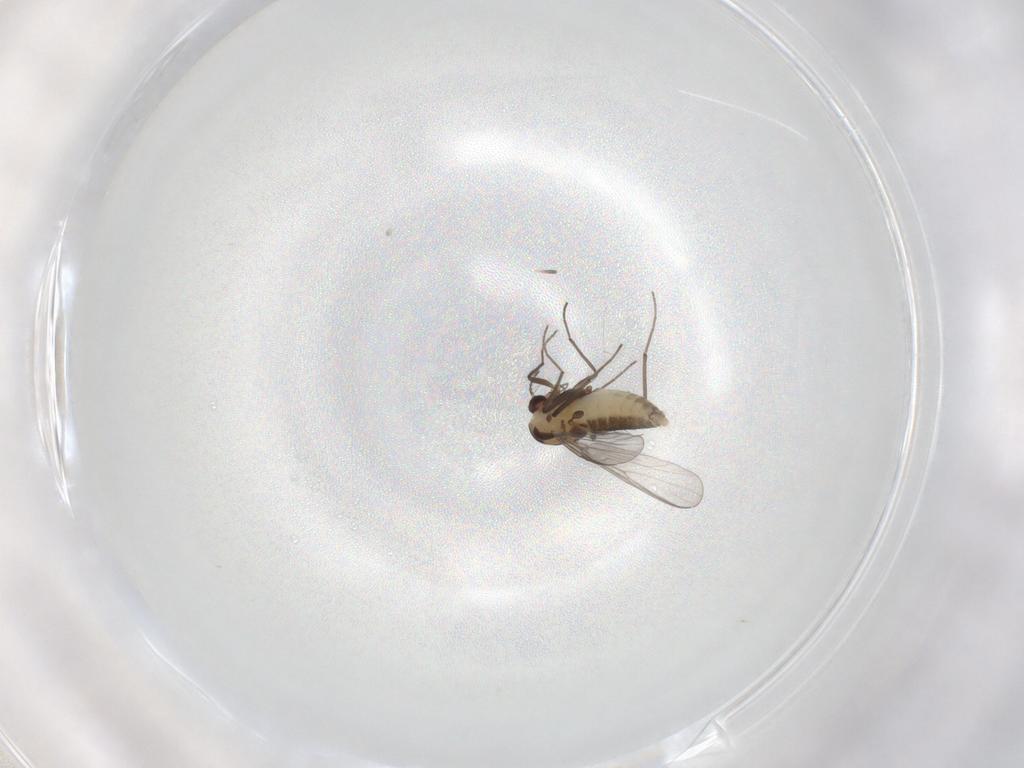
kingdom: Animalia
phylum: Arthropoda
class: Insecta
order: Diptera
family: Chironomidae
